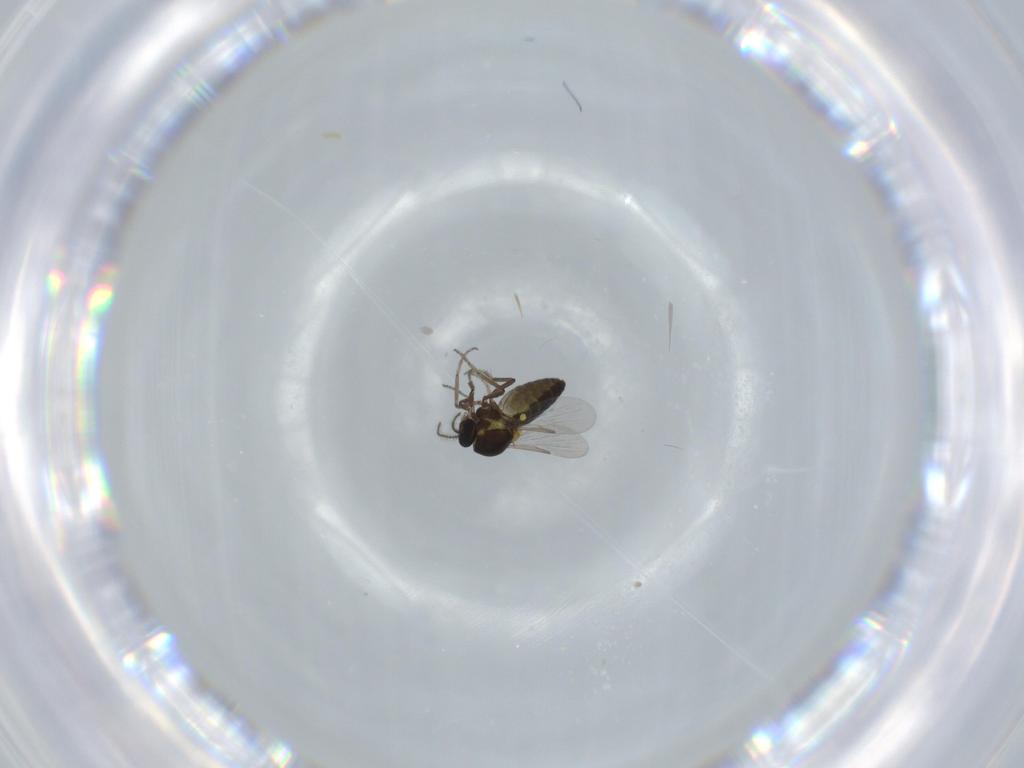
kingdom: Animalia
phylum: Arthropoda
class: Insecta
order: Diptera
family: Ceratopogonidae
